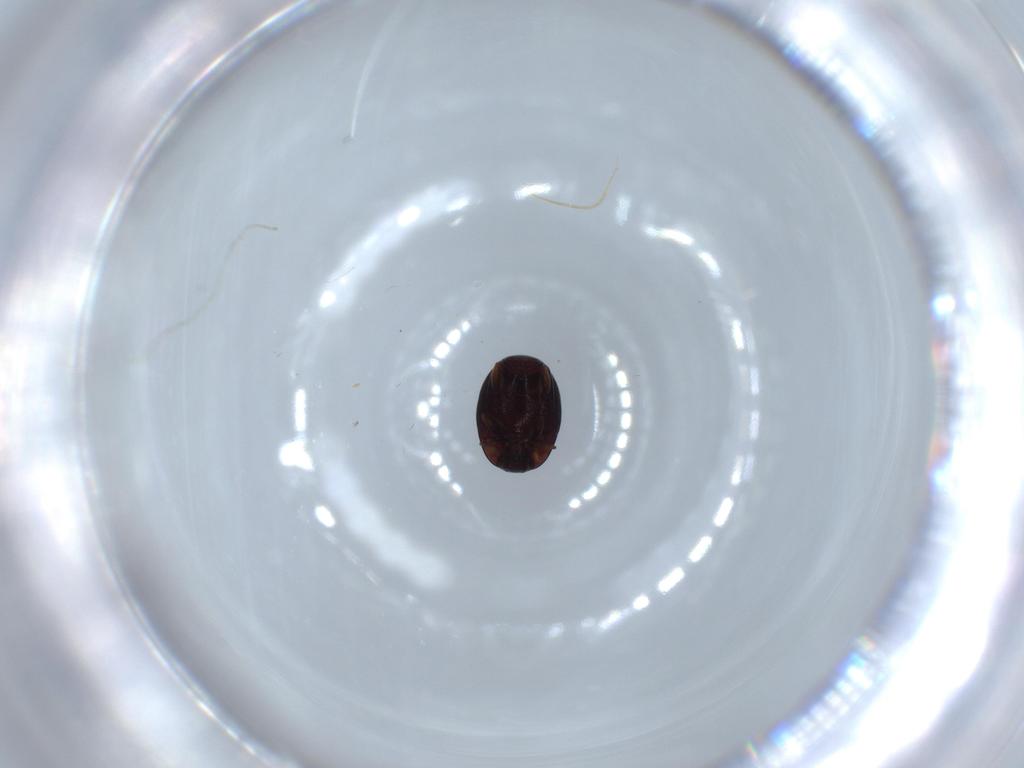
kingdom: Animalia
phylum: Arthropoda
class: Insecta
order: Coleoptera
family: Histeridae
